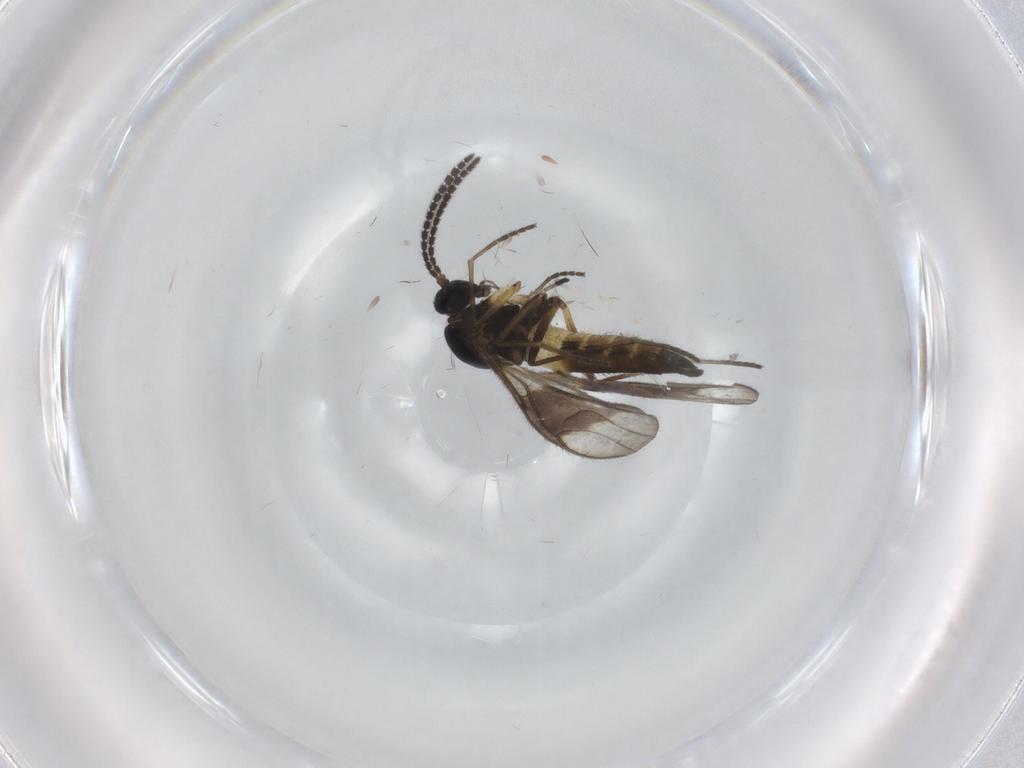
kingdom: Animalia
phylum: Arthropoda
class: Insecta
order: Diptera
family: Sciaridae
